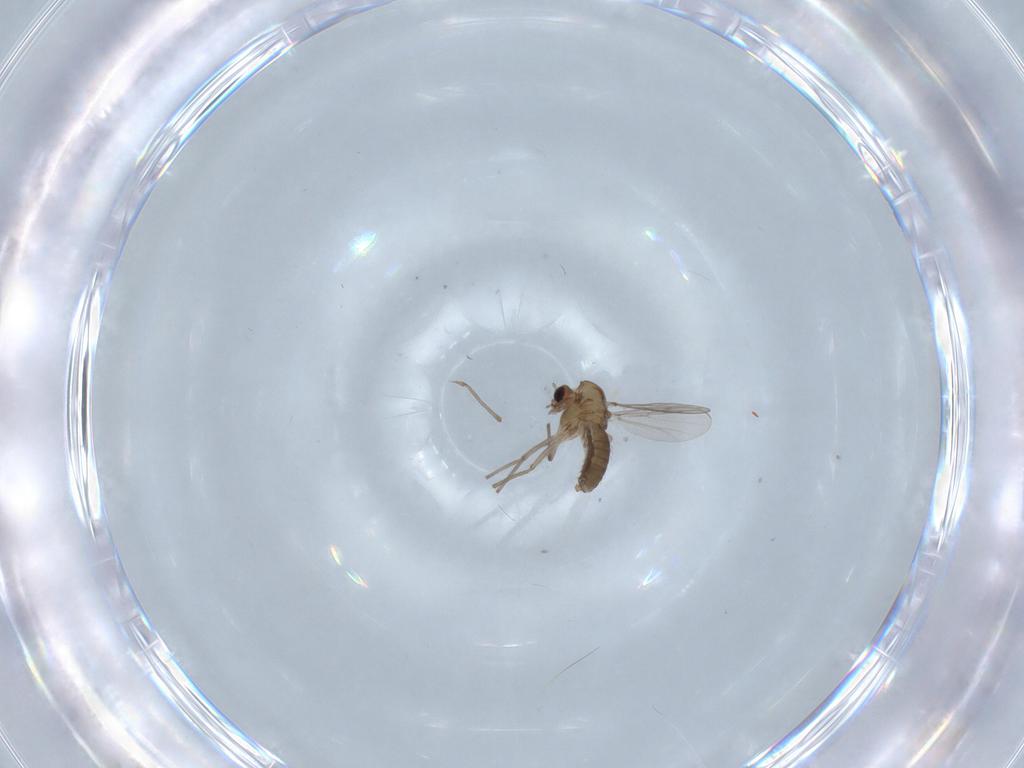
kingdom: Animalia
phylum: Arthropoda
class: Insecta
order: Diptera
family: Chironomidae
